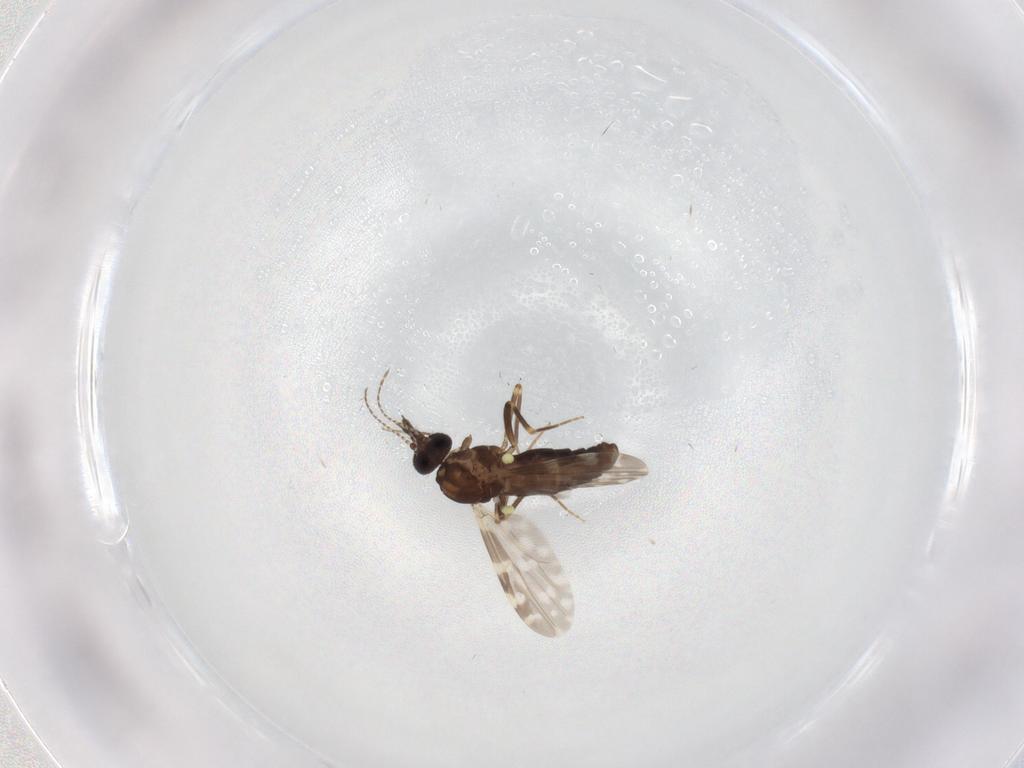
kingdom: Animalia
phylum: Arthropoda
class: Insecta
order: Diptera
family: Ceratopogonidae
